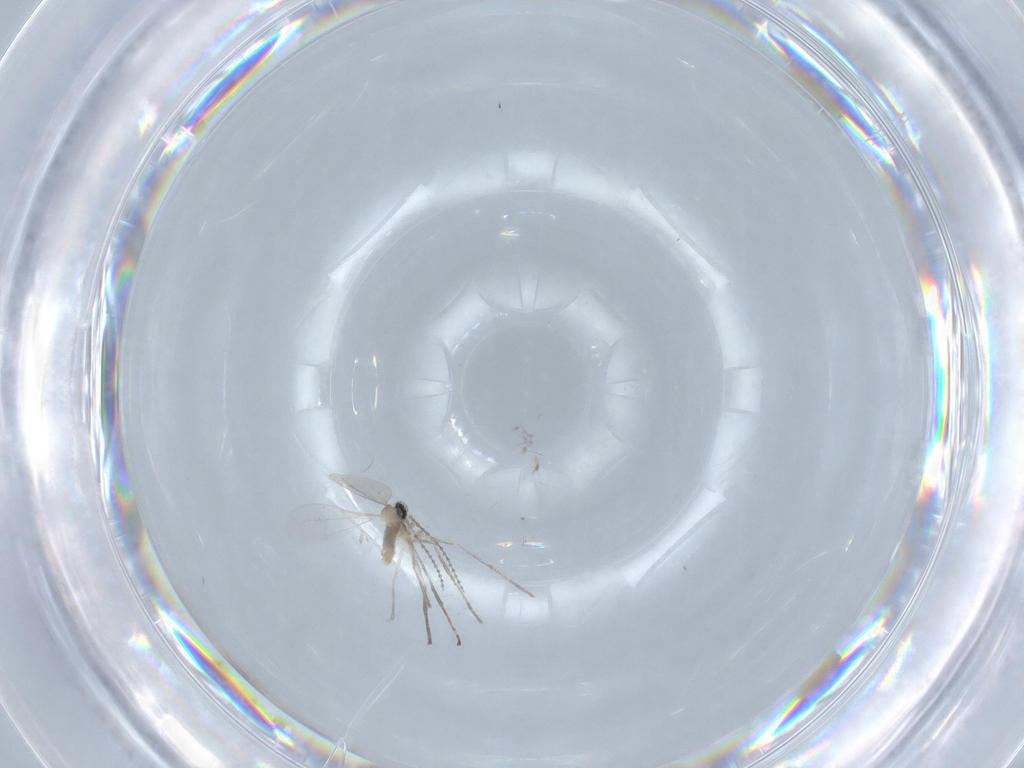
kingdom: Animalia
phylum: Arthropoda
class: Insecta
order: Diptera
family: Cecidomyiidae
